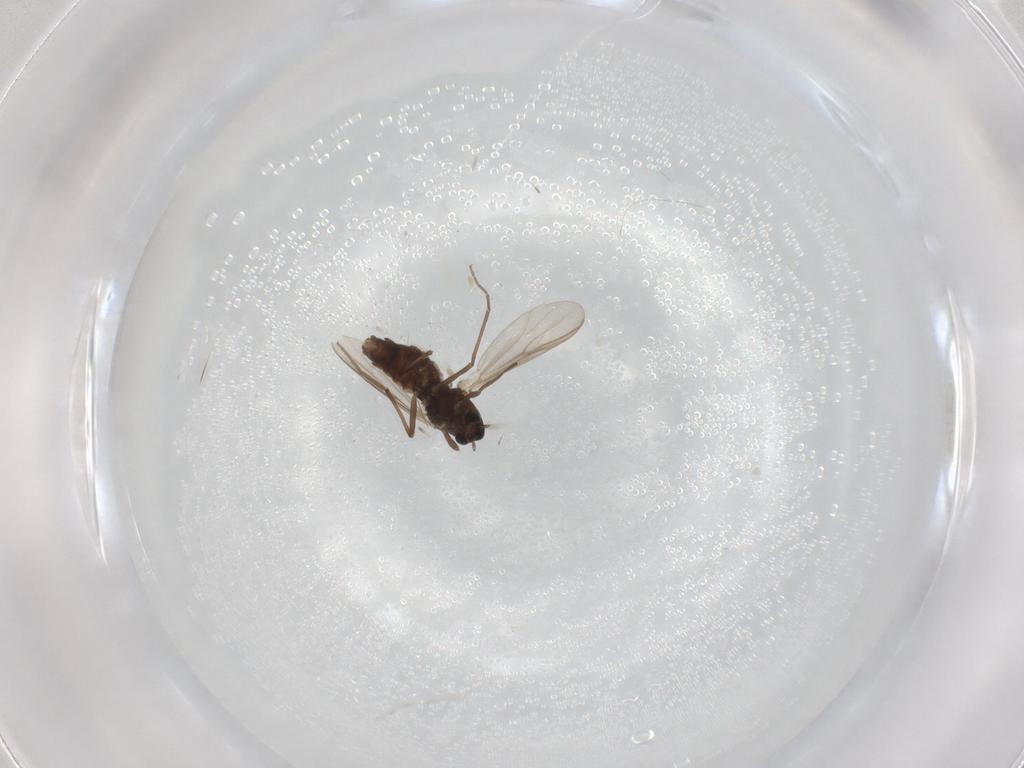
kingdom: Animalia
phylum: Arthropoda
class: Insecta
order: Diptera
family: Chironomidae
